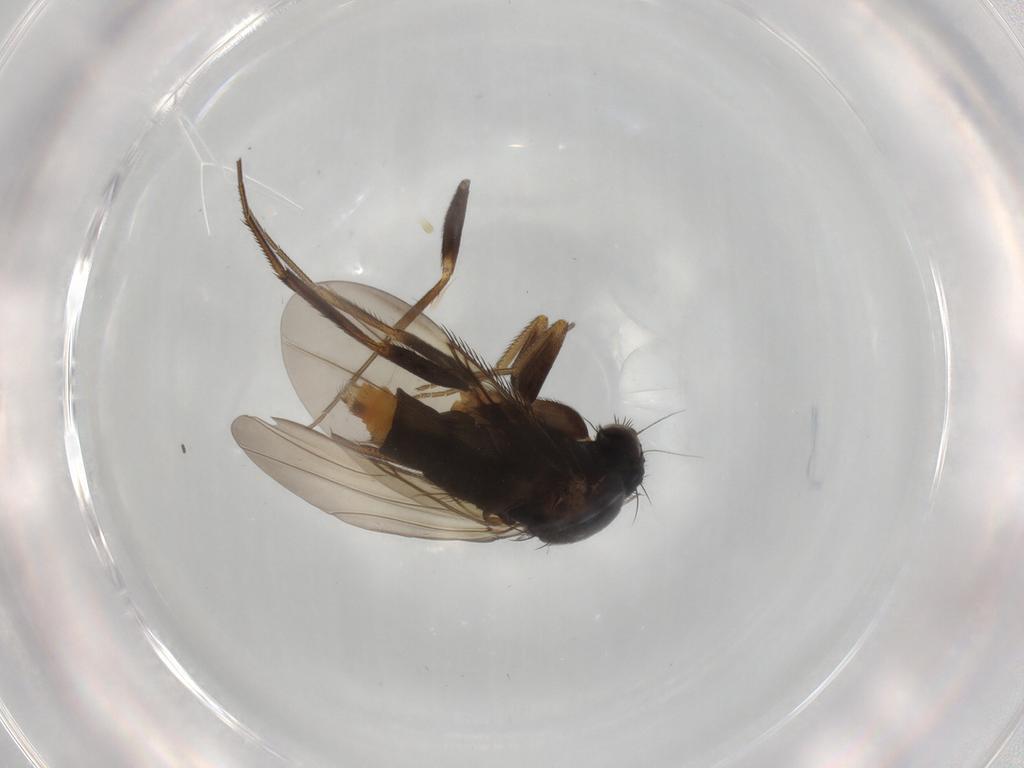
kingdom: Animalia
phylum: Arthropoda
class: Insecta
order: Diptera
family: Phoridae
